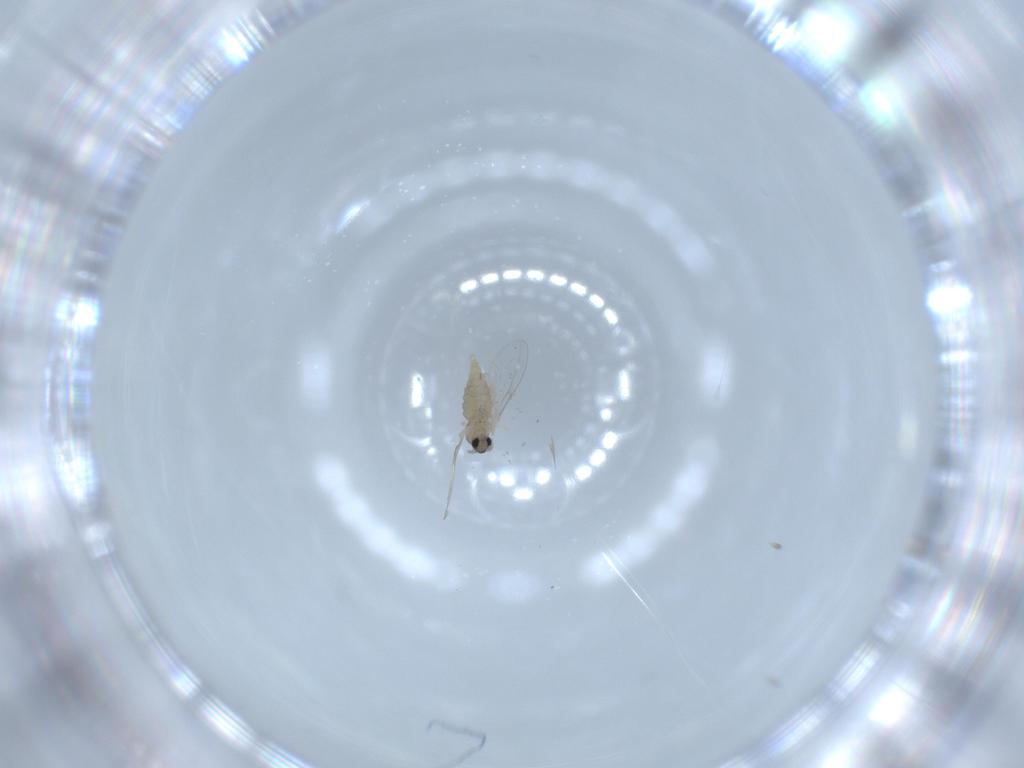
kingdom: Animalia
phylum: Arthropoda
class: Insecta
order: Diptera
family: Cecidomyiidae
